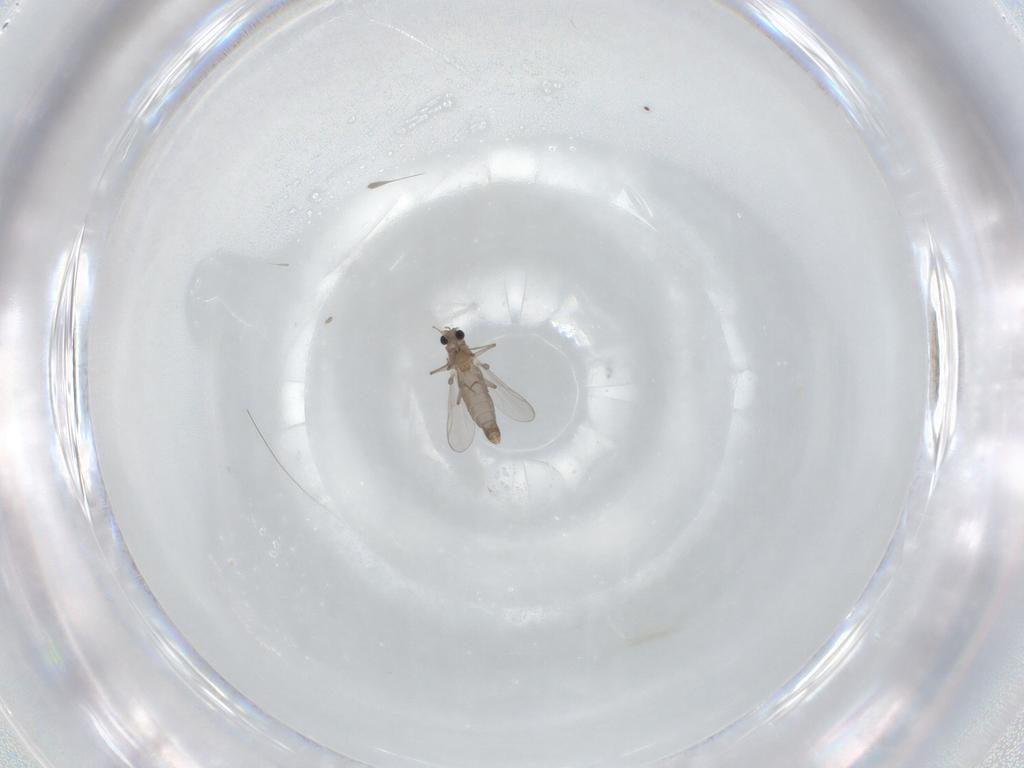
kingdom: Animalia
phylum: Arthropoda
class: Insecta
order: Diptera
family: Chironomidae
